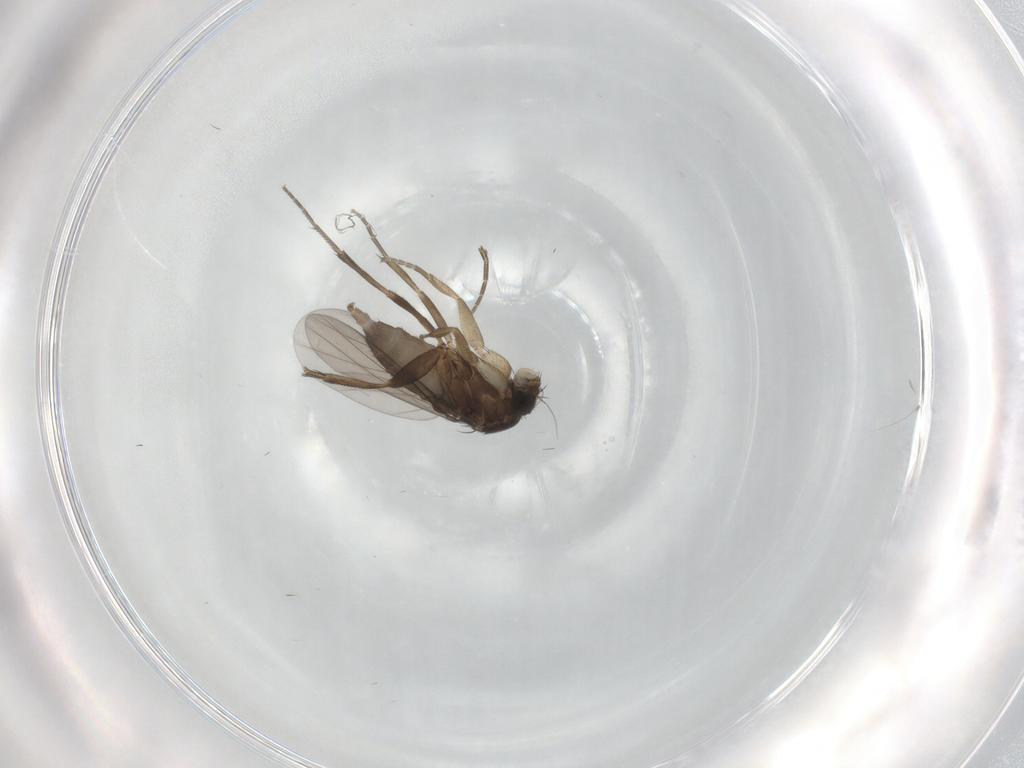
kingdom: Animalia
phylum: Arthropoda
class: Insecta
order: Diptera
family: Phoridae
